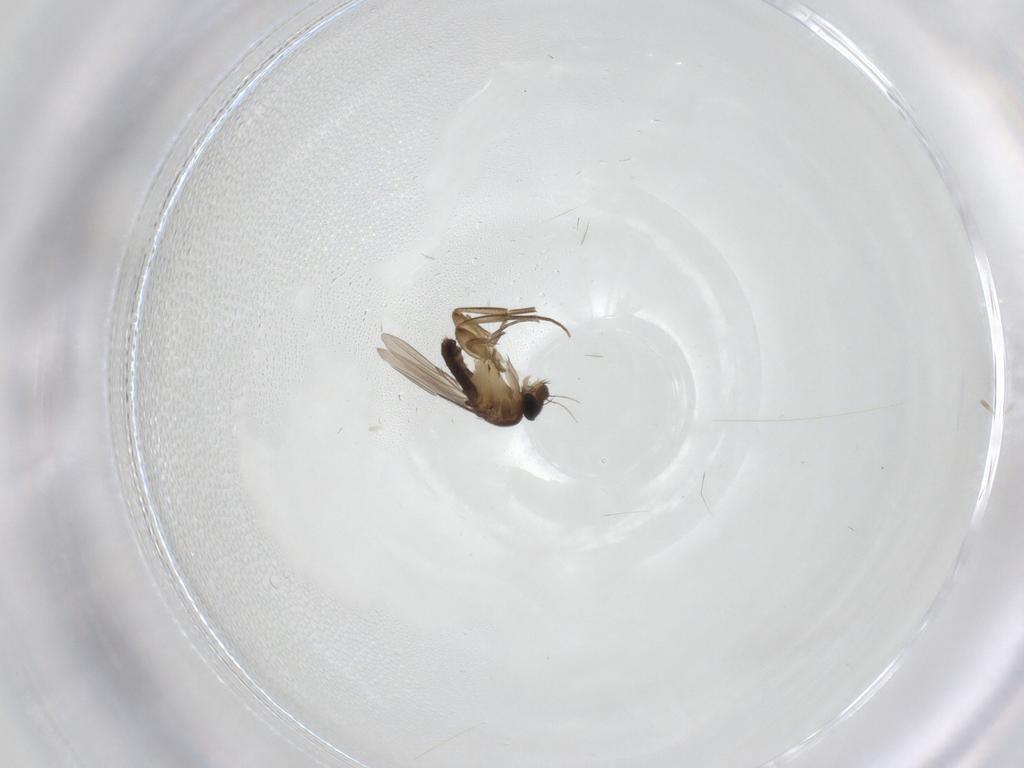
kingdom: Animalia
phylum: Arthropoda
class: Insecta
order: Diptera
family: Phoridae
